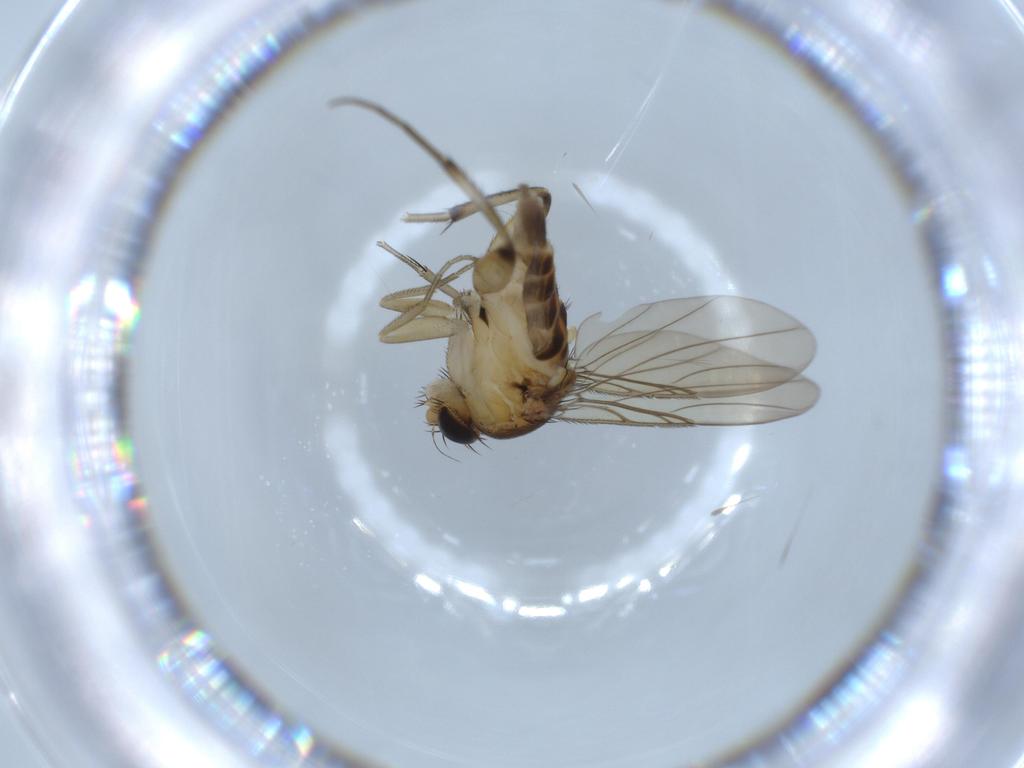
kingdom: Animalia
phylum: Arthropoda
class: Insecta
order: Diptera
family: Phoridae
